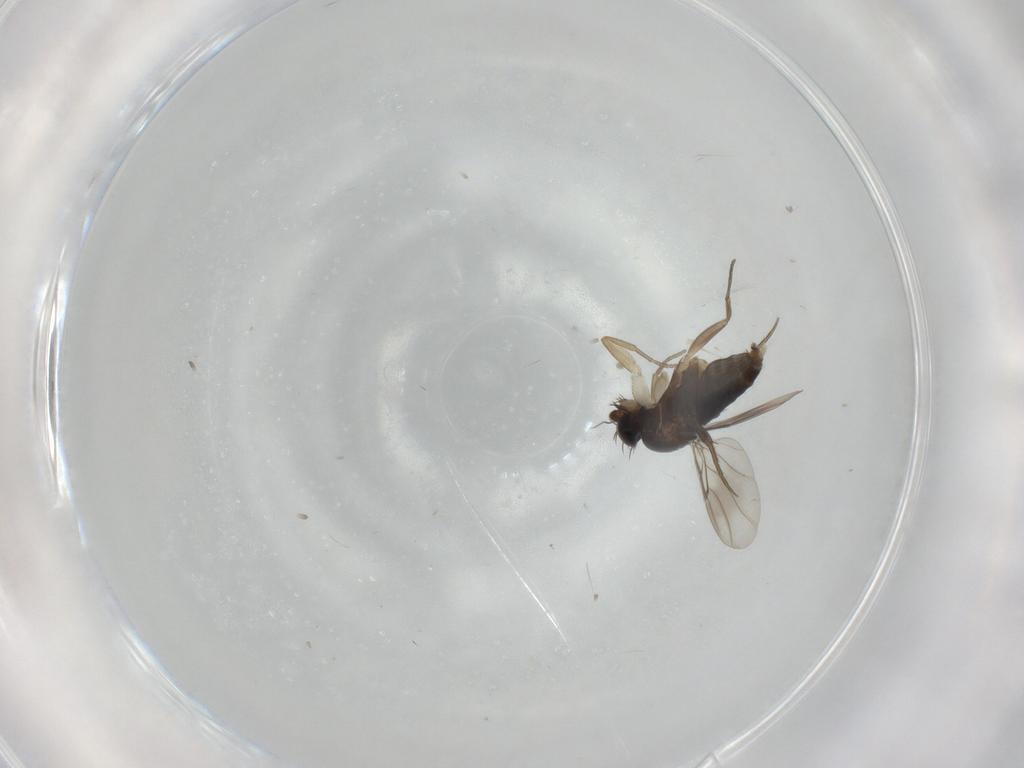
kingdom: Animalia
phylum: Arthropoda
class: Insecta
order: Diptera
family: Phoridae
